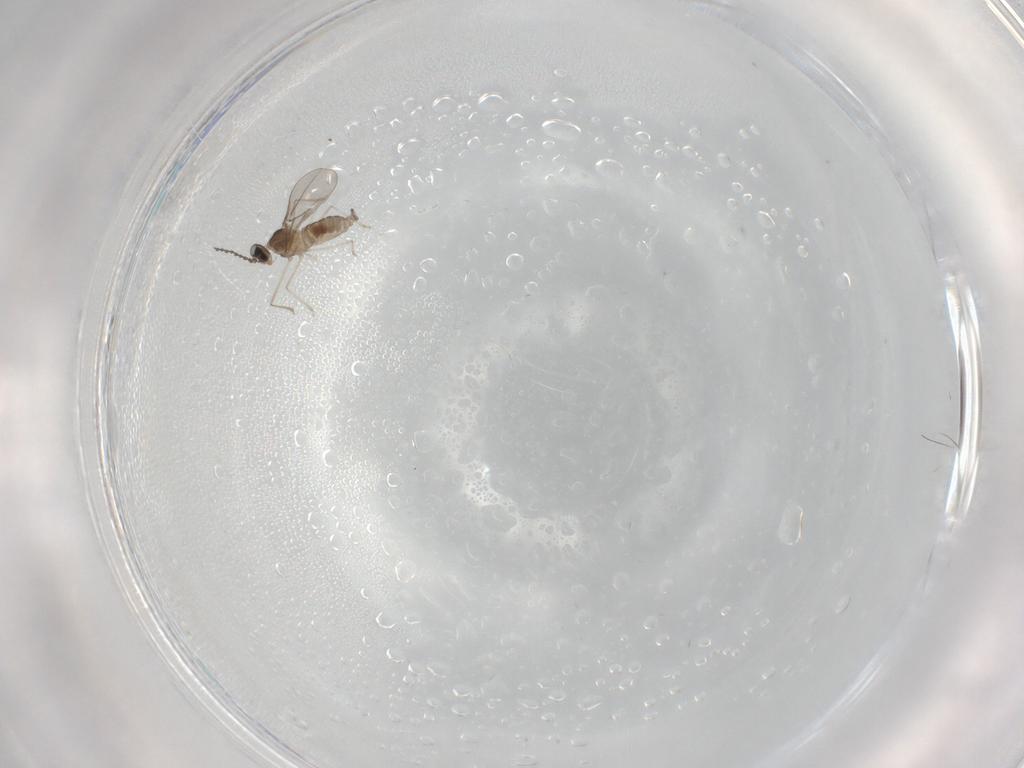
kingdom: Animalia
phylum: Arthropoda
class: Insecta
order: Diptera
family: Cecidomyiidae
